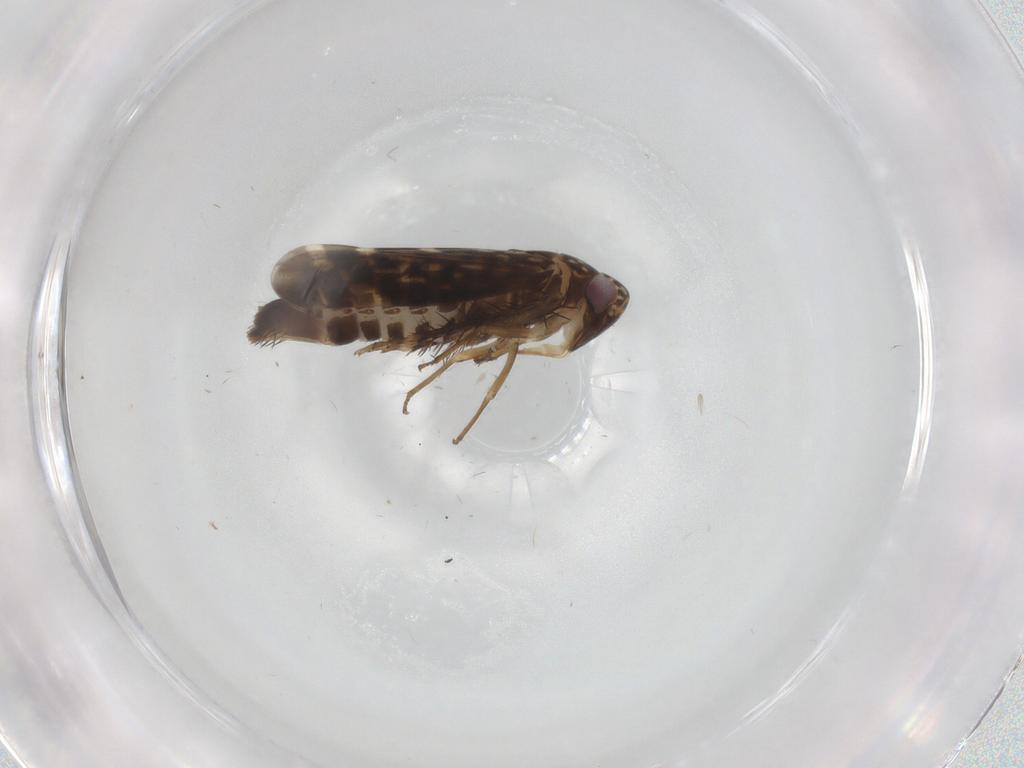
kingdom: Animalia
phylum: Arthropoda
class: Insecta
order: Hemiptera
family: Cicadellidae
